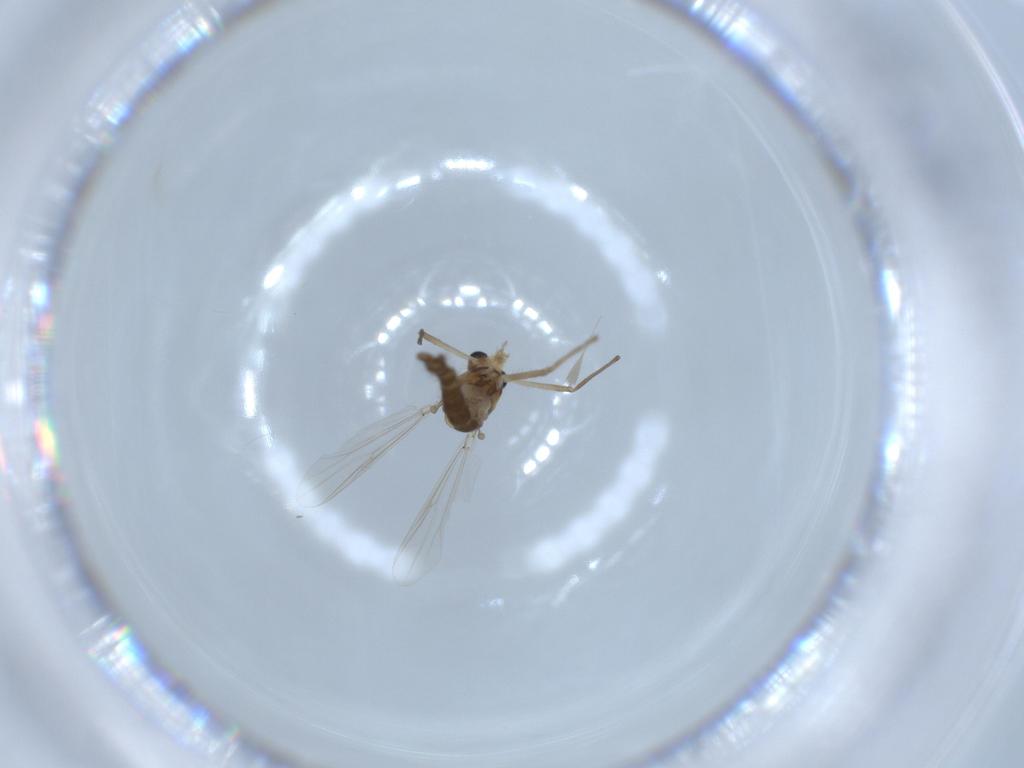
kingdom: Animalia
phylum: Arthropoda
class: Insecta
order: Diptera
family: Chironomidae
